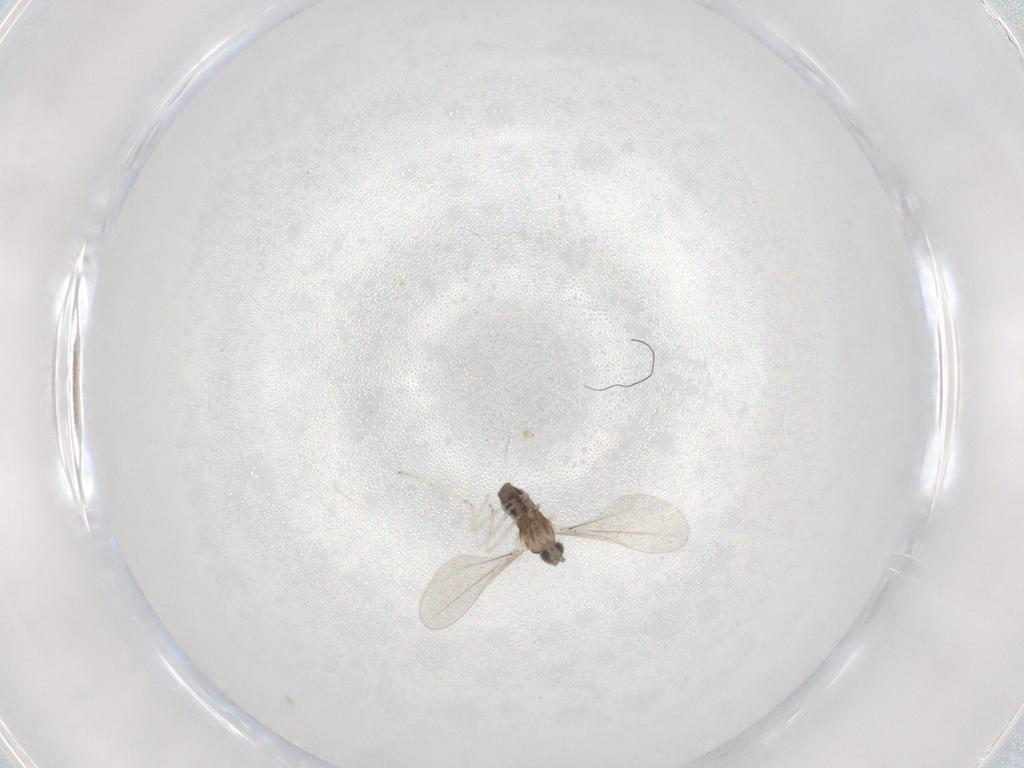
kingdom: Animalia
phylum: Arthropoda
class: Insecta
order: Diptera
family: Cecidomyiidae
